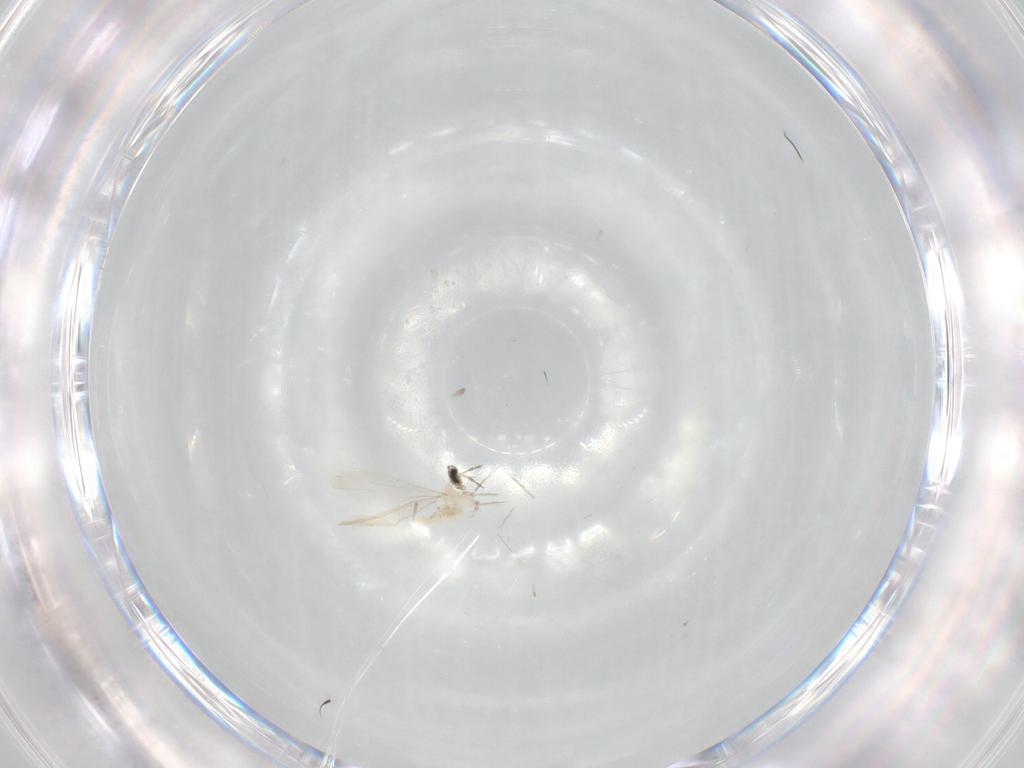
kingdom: Animalia
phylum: Arthropoda
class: Insecta
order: Diptera
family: Cecidomyiidae
